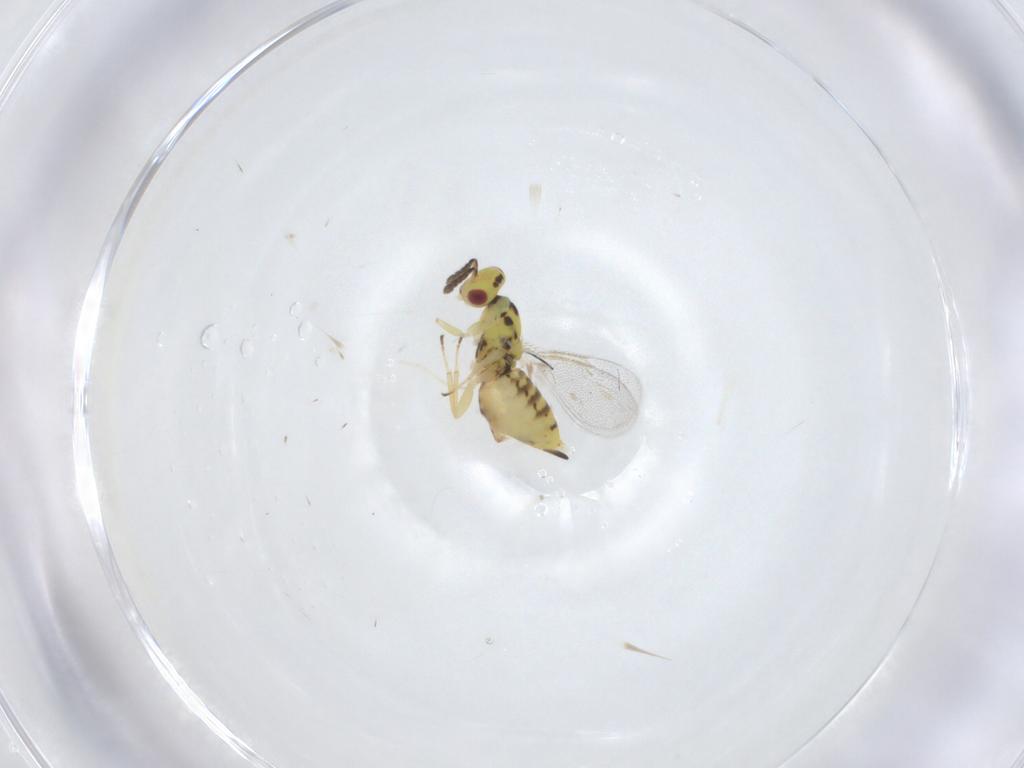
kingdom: Animalia
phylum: Arthropoda
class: Insecta
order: Hymenoptera
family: Eulophidae
